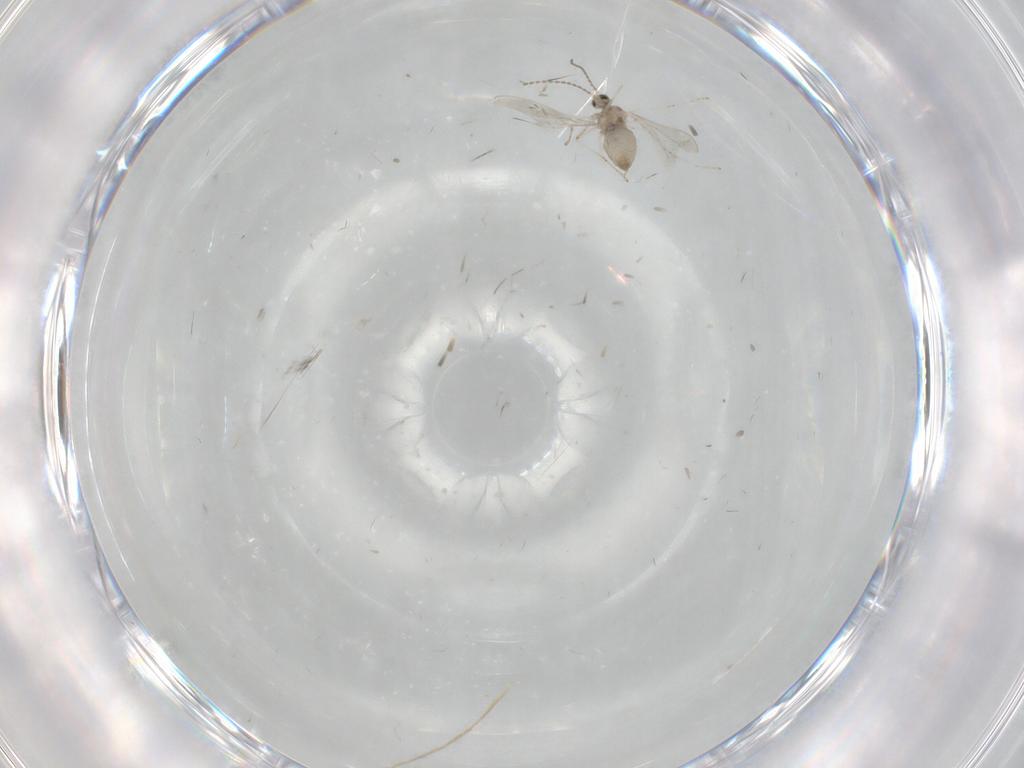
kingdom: Animalia
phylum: Arthropoda
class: Insecta
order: Diptera
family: Cecidomyiidae
